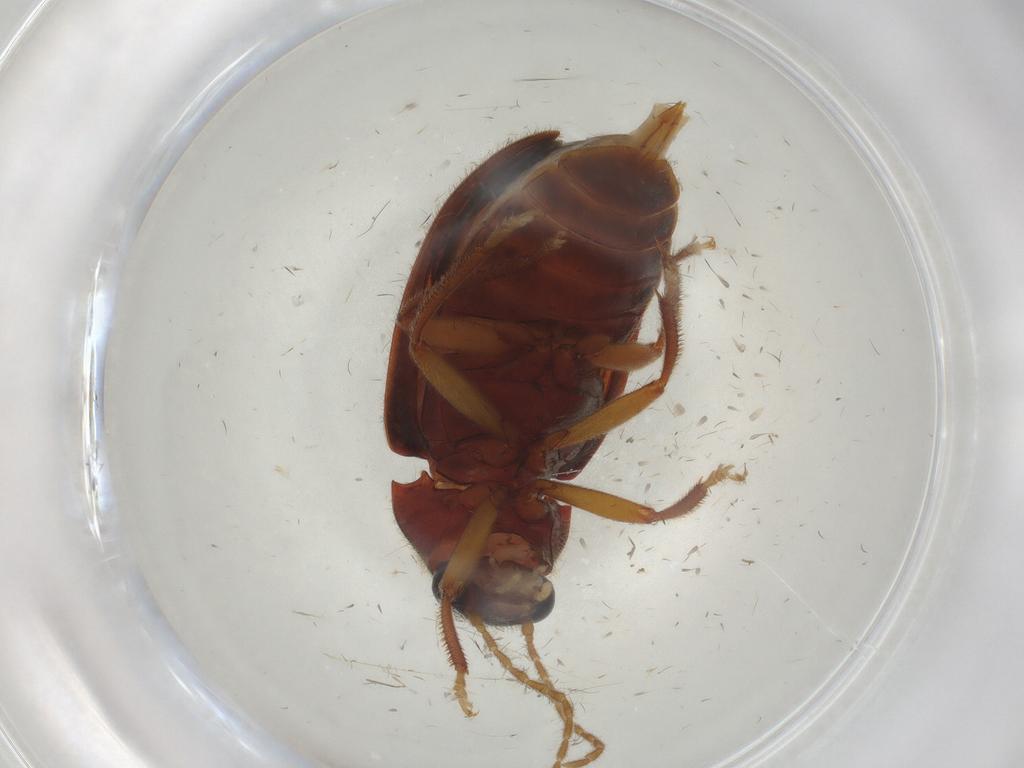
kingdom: Animalia
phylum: Arthropoda
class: Insecta
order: Coleoptera
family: Ptilodactylidae
